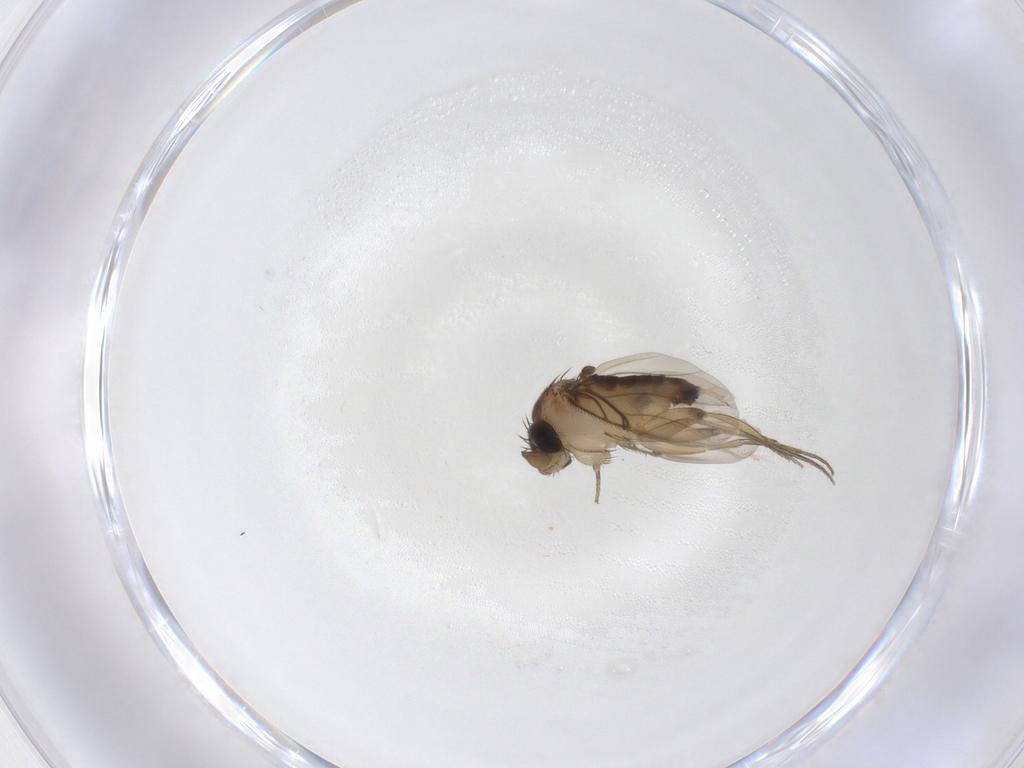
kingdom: Animalia
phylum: Arthropoda
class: Insecta
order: Diptera
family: Phoridae
